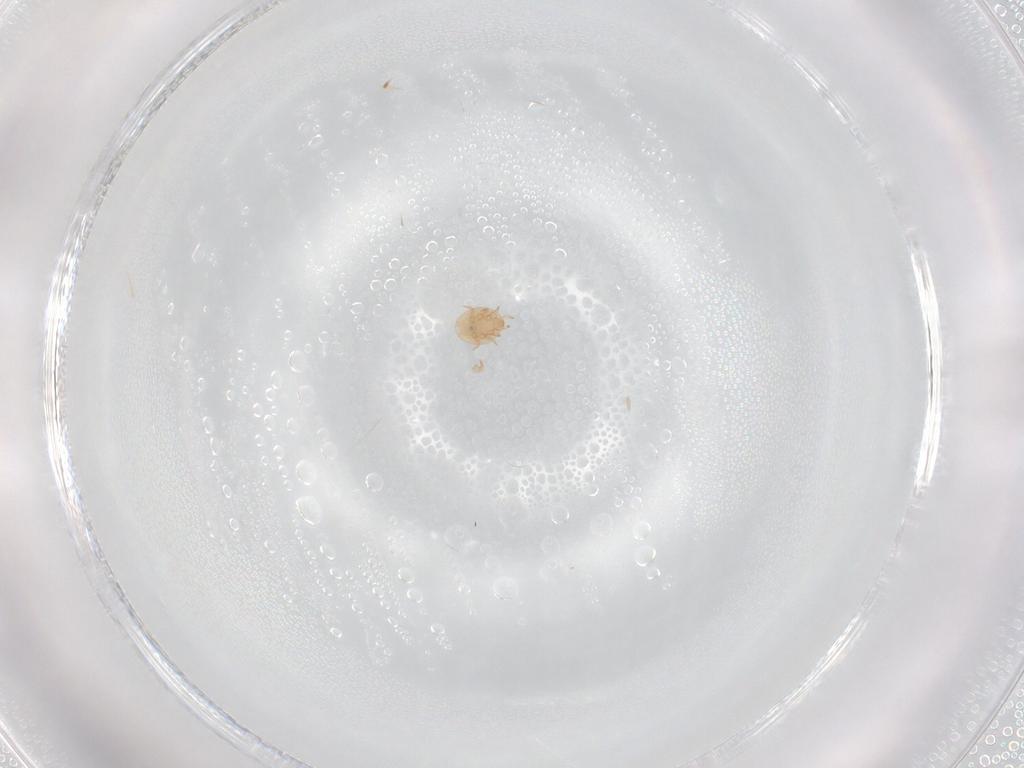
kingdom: Animalia
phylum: Arthropoda
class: Arachnida
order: Mesostigmata
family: Trematuridae
